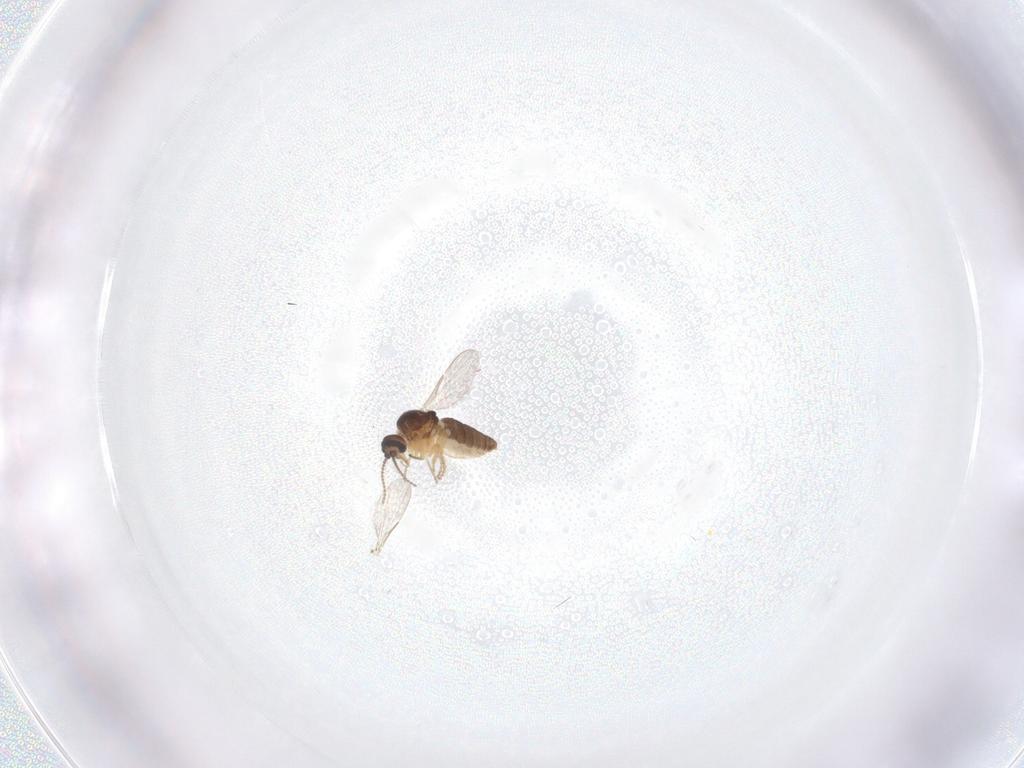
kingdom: Animalia
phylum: Arthropoda
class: Insecta
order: Diptera
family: Ceratopogonidae
